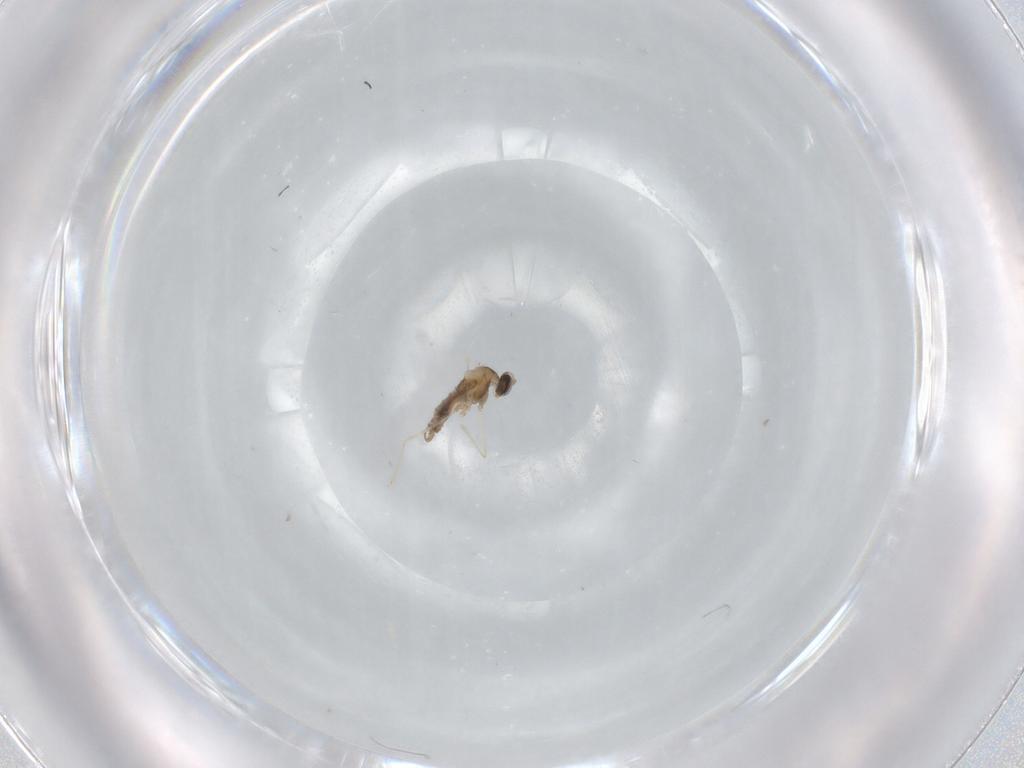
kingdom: Animalia
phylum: Arthropoda
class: Insecta
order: Diptera
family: Cecidomyiidae
